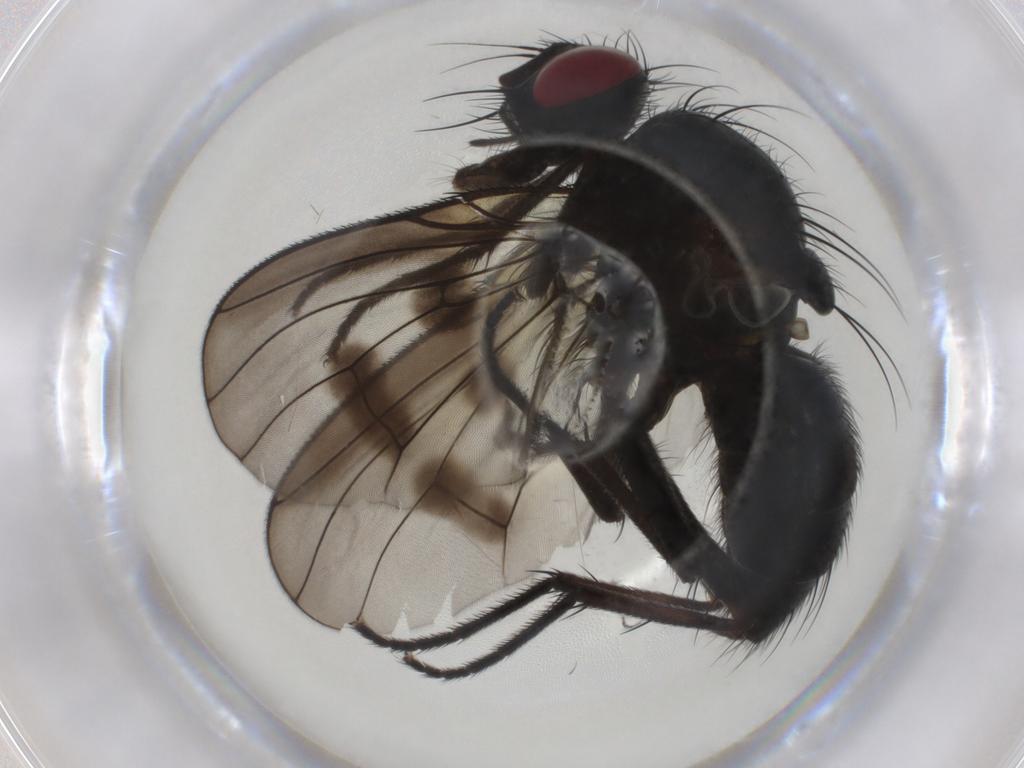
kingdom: Animalia
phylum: Arthropoda
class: Insecta
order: Diptera
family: Muscidae
